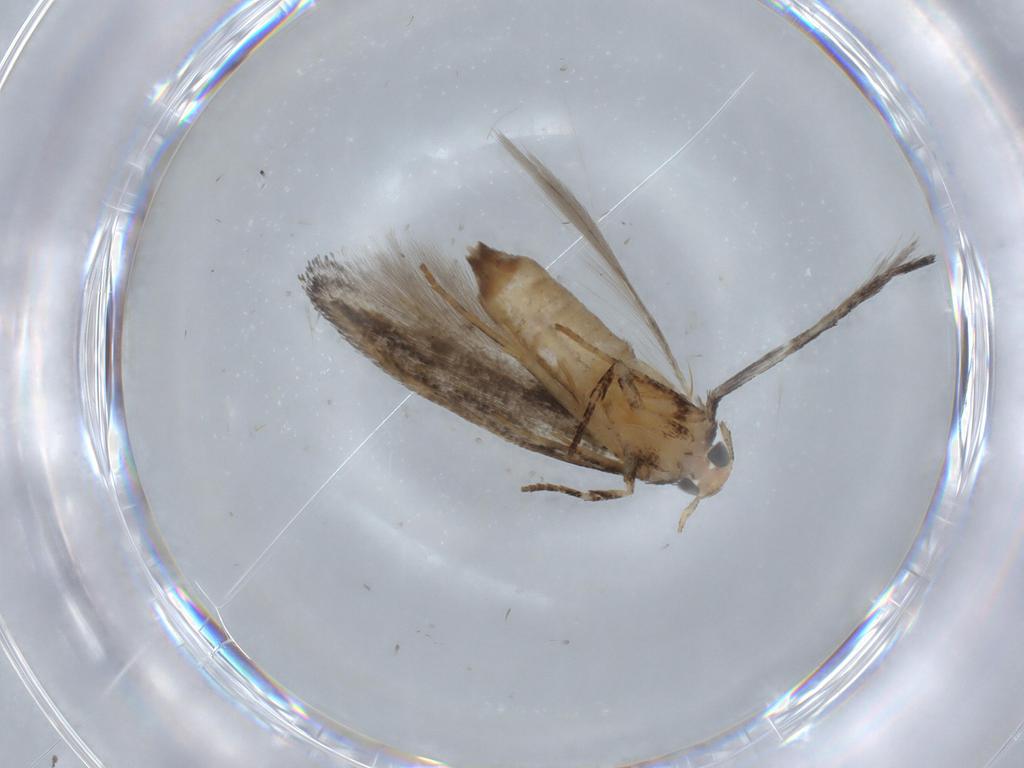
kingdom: Animalia
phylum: Arthropoda
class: Insecta
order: Lepidoptera
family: Cosmopterigidae
